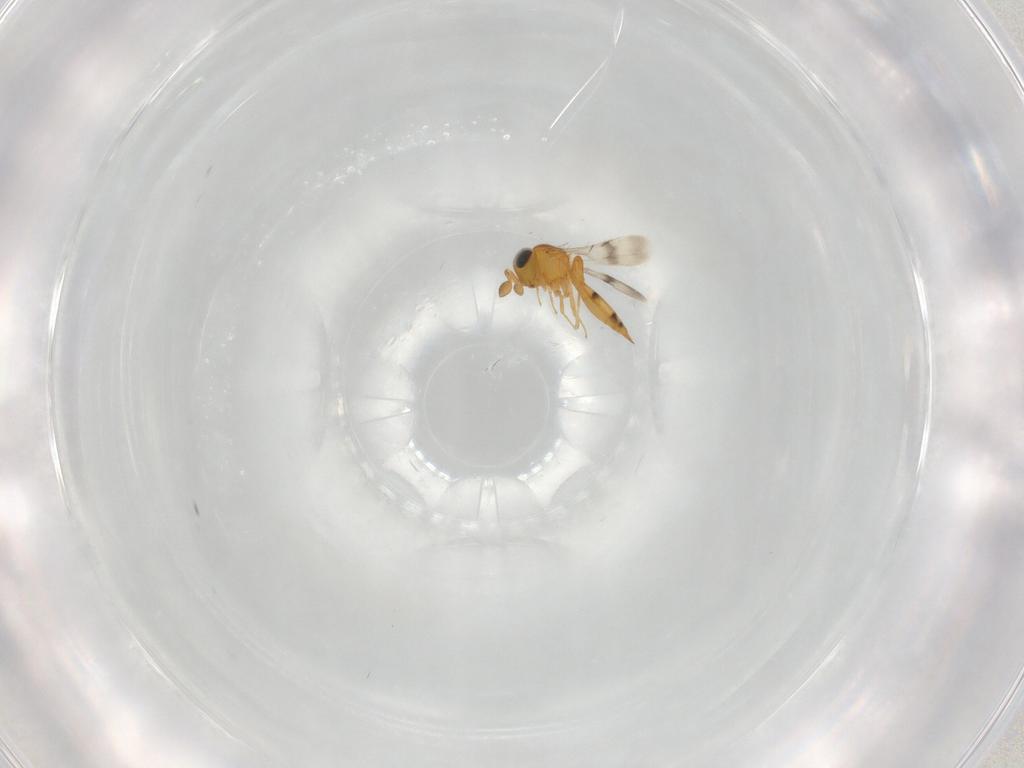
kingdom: Animalia
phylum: Arthropoda
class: Insecta
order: Hymenoptera
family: Scelionidae
